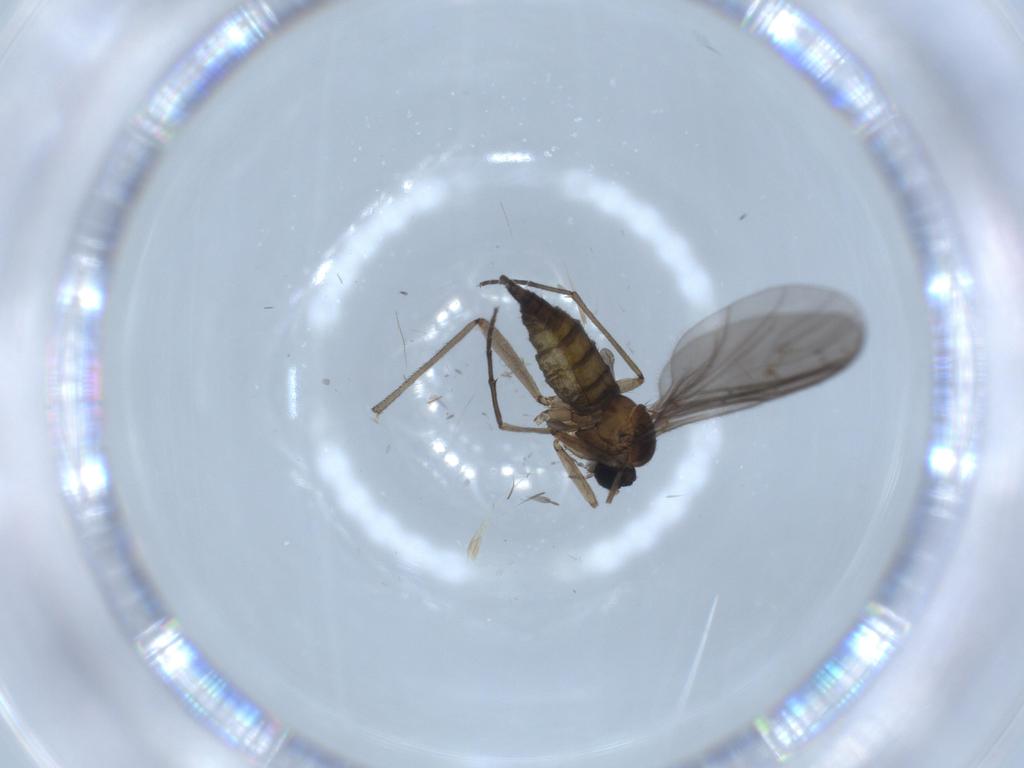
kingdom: Animalia
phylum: Arthropoda
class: Insecta
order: Diptera
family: Sciaridae
